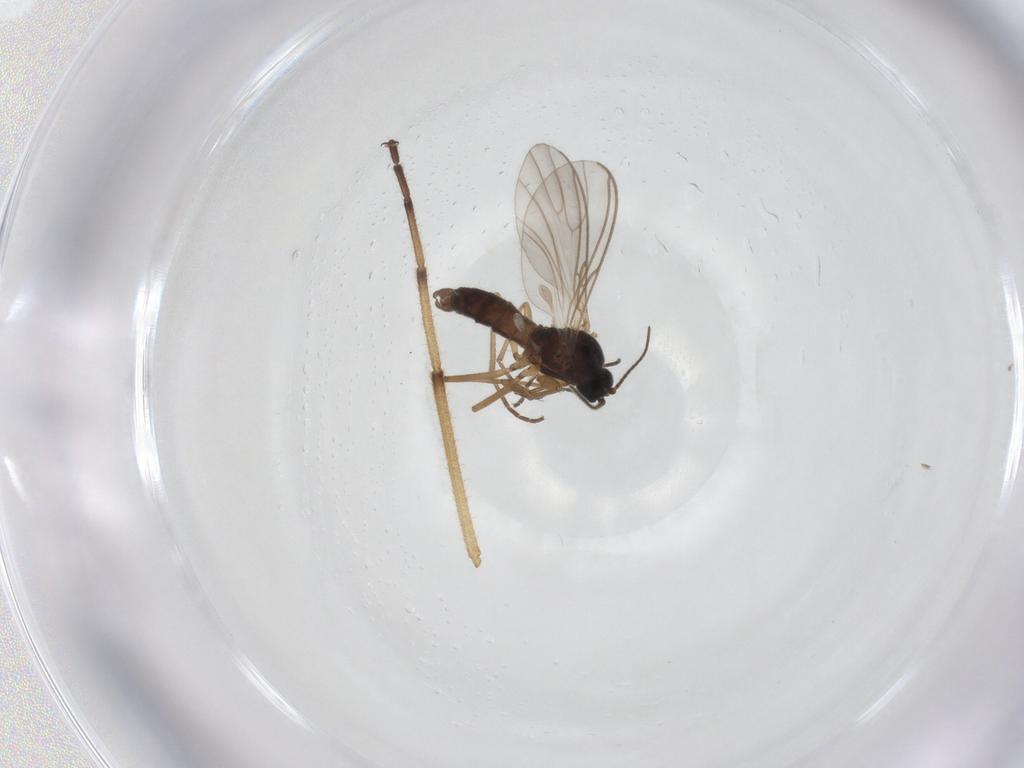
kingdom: Animalia
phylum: Arthropoda
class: Insecta
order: Diptera
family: Sciaridae
